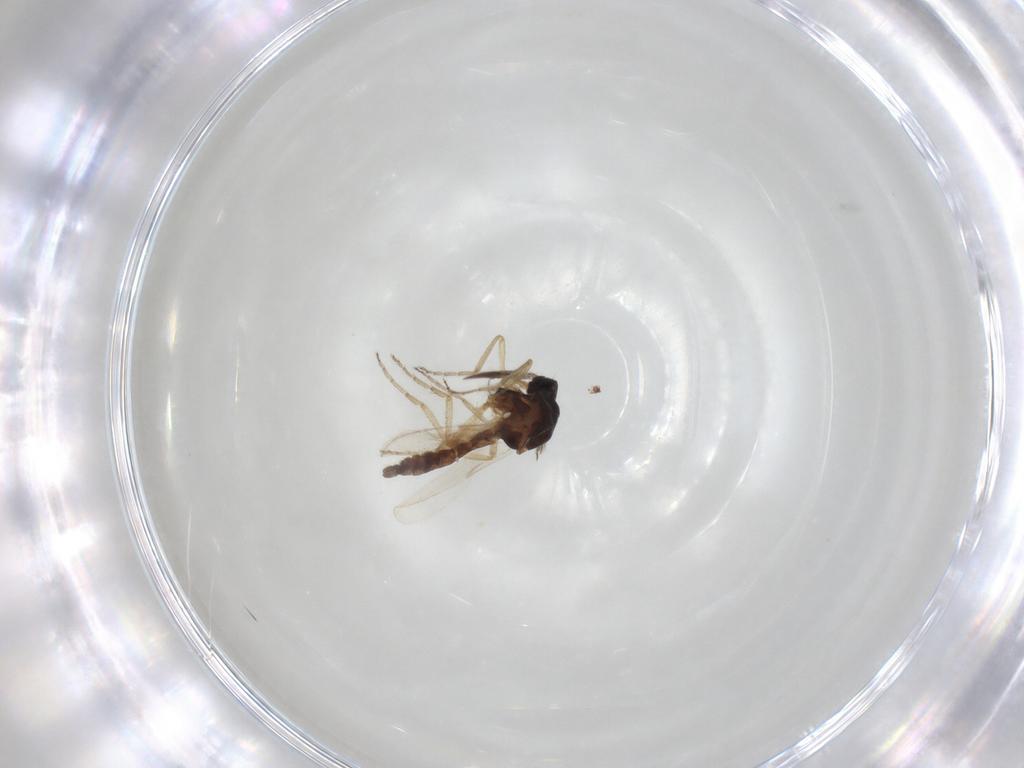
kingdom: Animalia
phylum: Arthropoda
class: Insecta
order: Diptera
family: Ceratopogonidae
